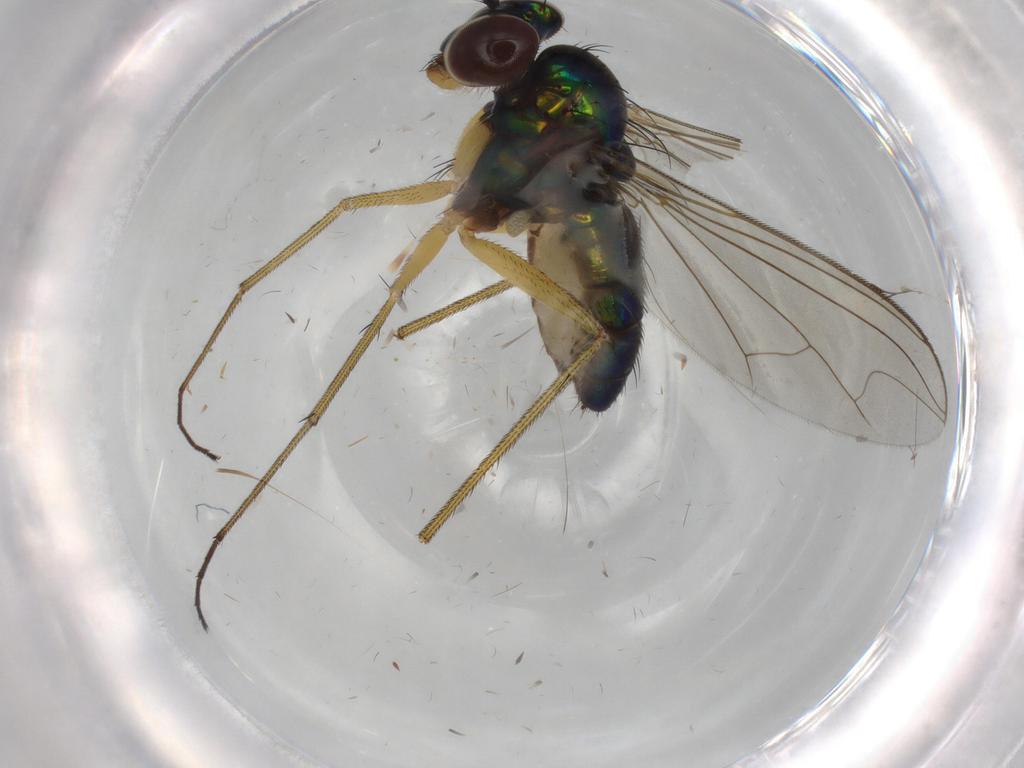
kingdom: Animalia
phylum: Arthropoda
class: Insecta
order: Diptera
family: Dolichopodidae
